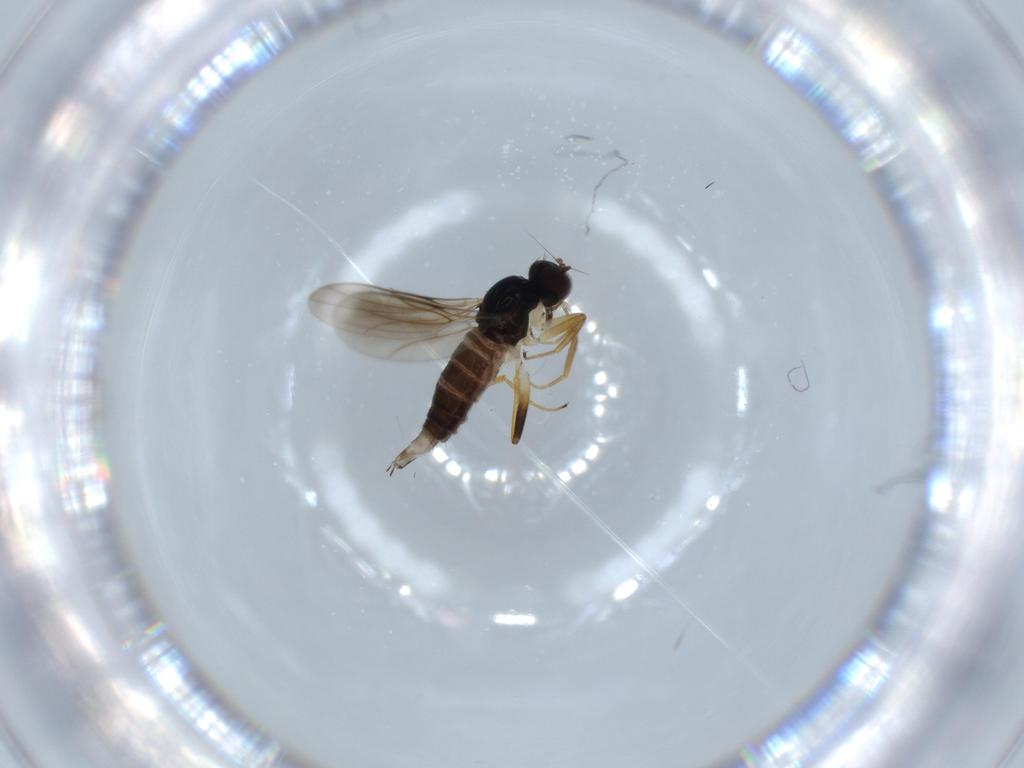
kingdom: Animalia
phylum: Arthropoda
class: Insecta
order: Diptera
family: Hybotidae
